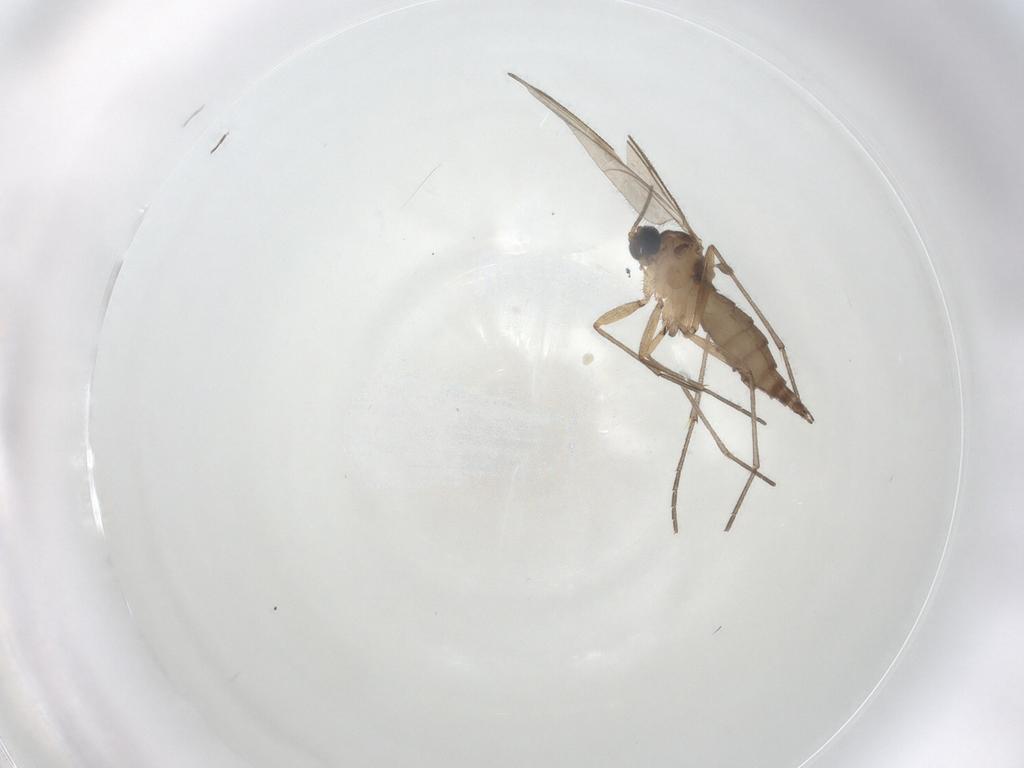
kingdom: Animalia
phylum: Arthropoda
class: Insecta
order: Diptera
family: Sciaridae
